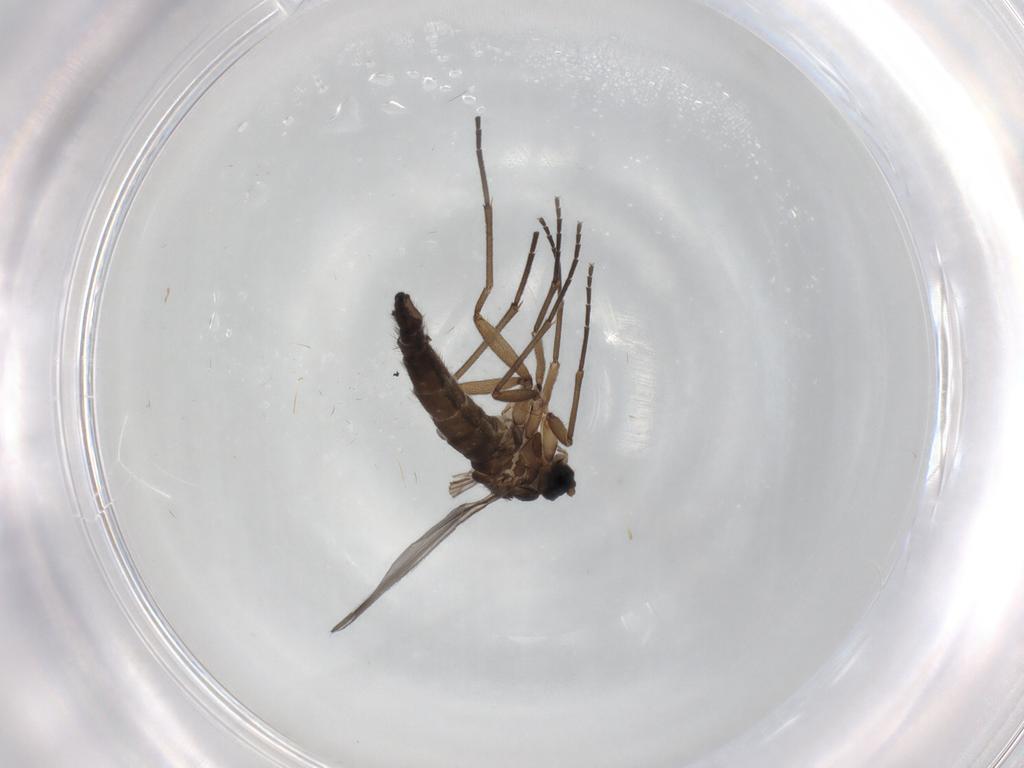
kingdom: Animalia
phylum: Arthropoda
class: Insecta
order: Diptera
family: Sciaridae
